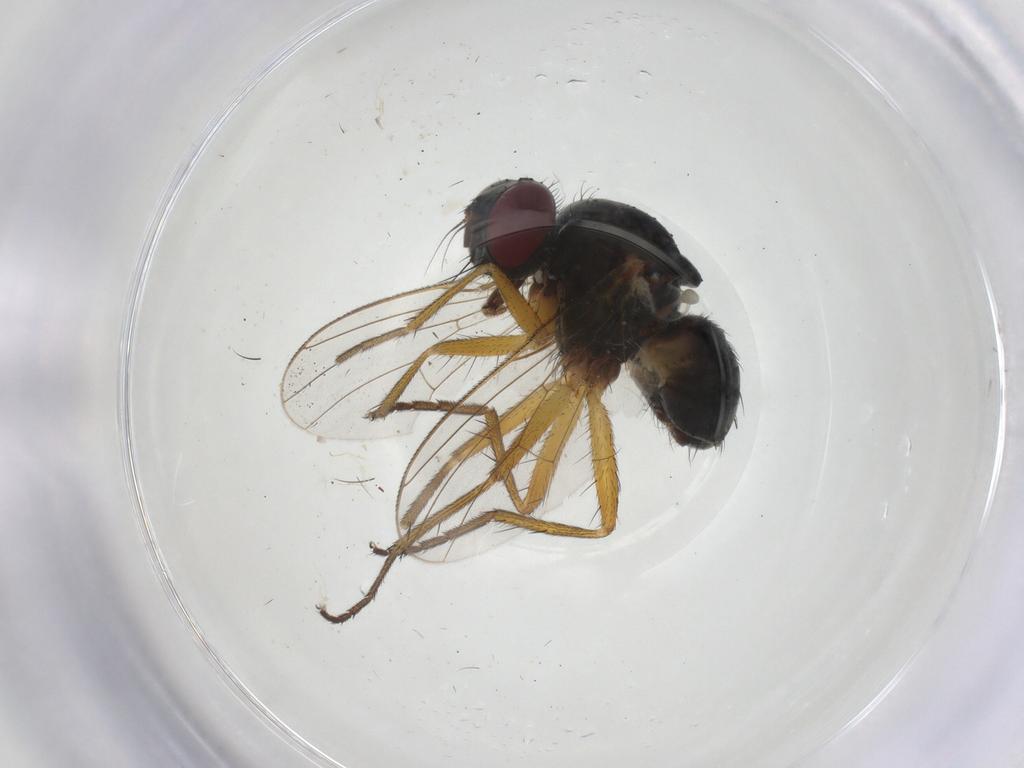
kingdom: Animalia
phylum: Arthropoda
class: Insecta
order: Diptera
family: Muscidae
